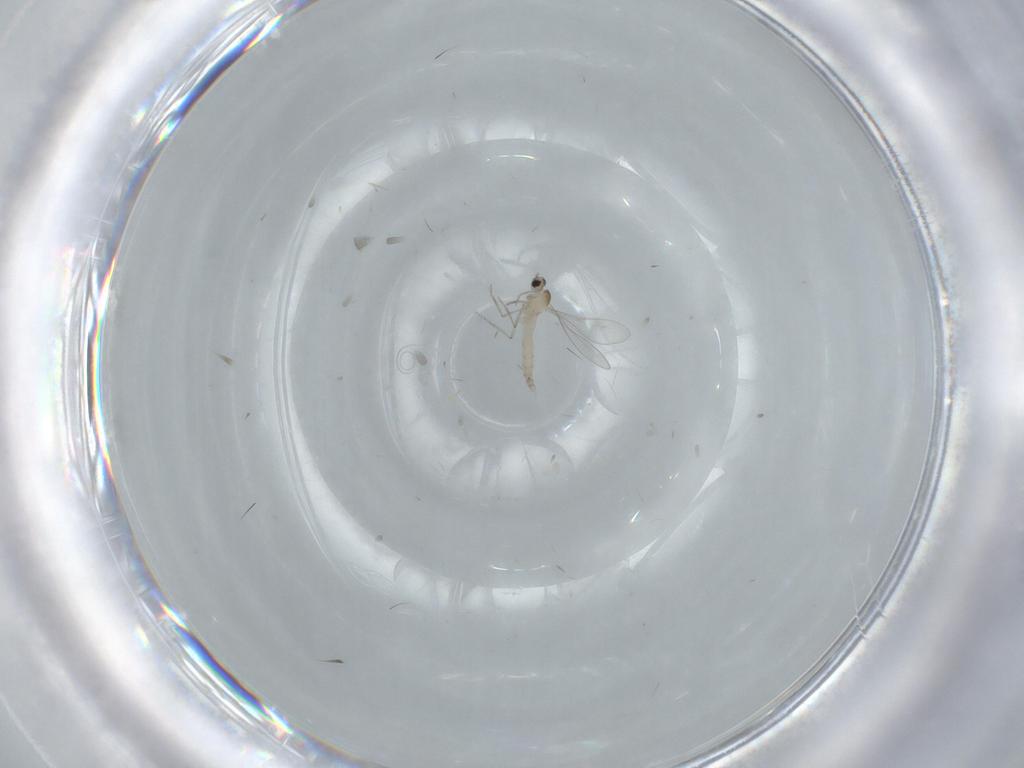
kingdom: Animalia
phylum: Arthropoda
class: Insecta
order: Diptera
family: Cecidomyiidae
